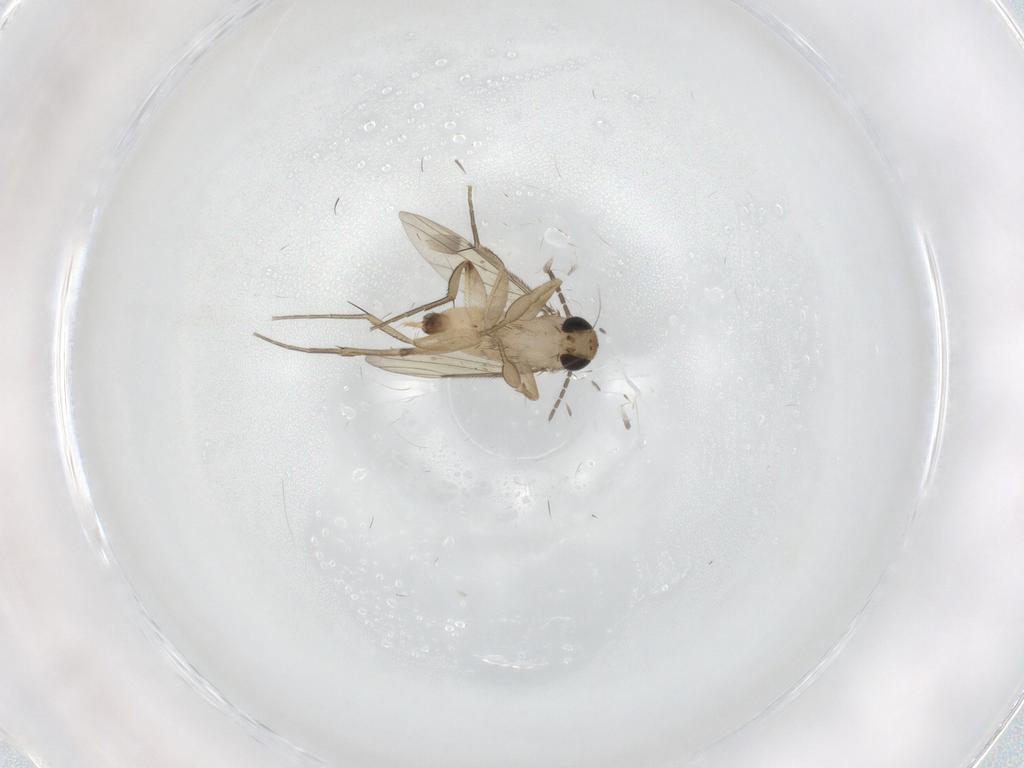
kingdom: Animalia
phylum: Arthropoda
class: Insecta
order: Diptera
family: Phoridae
